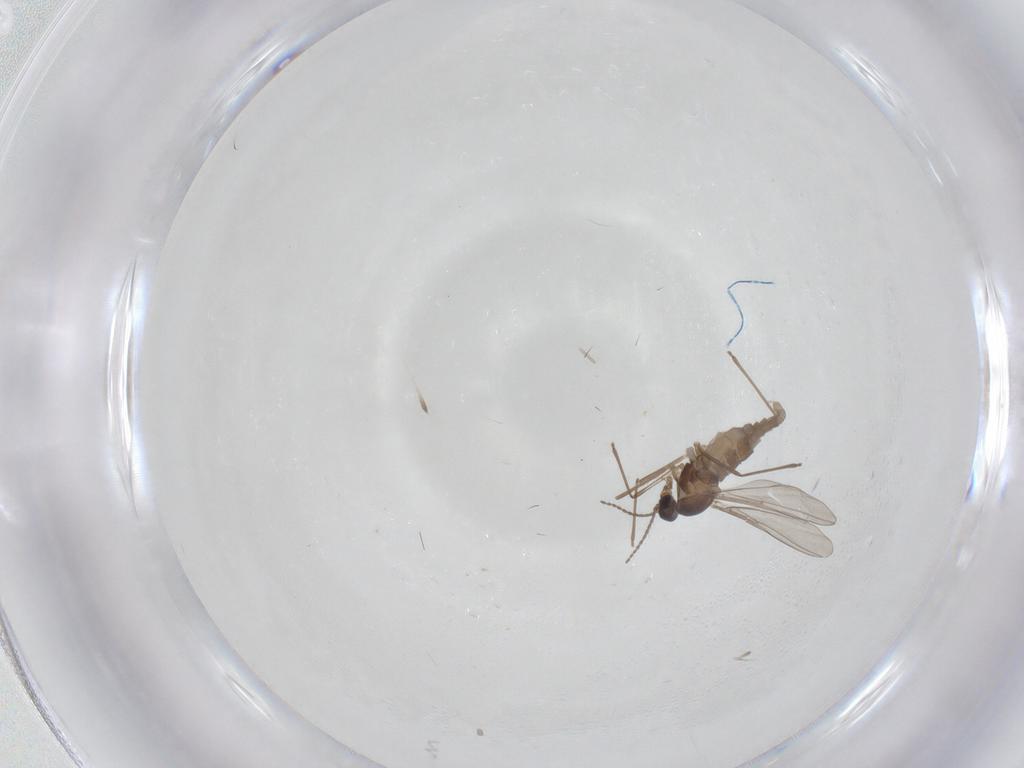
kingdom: Animalia
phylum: Arthropoda
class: Insecta
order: Diptera
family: Cecidomyiidae
